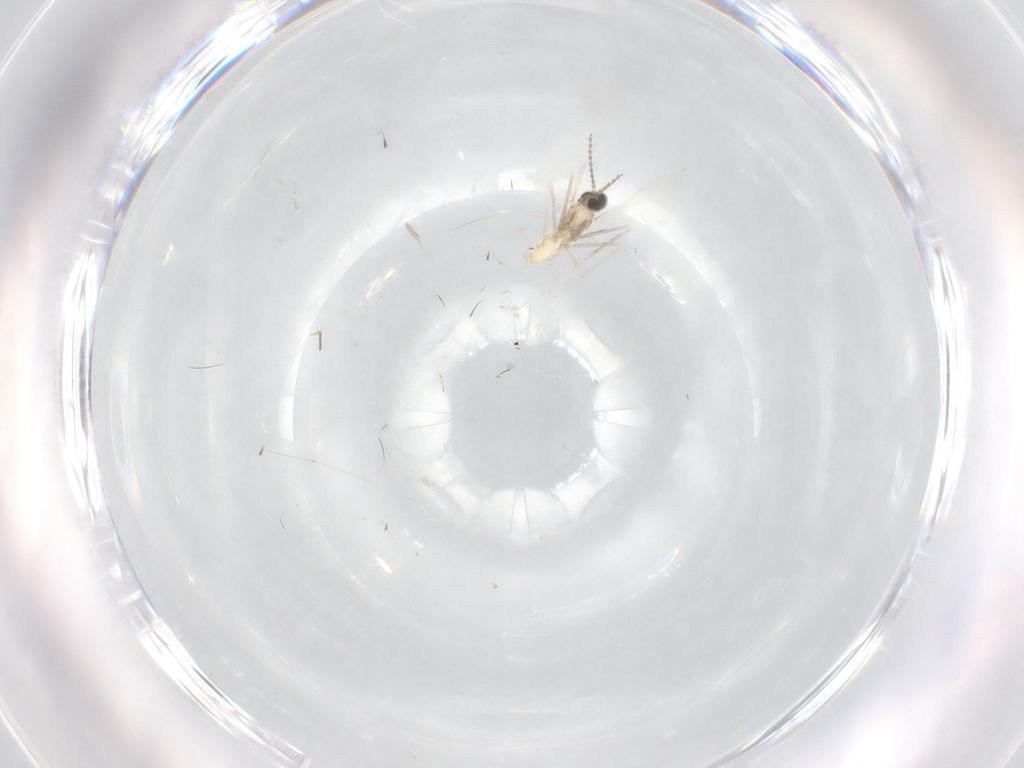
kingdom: Animalia
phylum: Arthropoda
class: Insecta
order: Diptera
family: Cecidomyiidae
